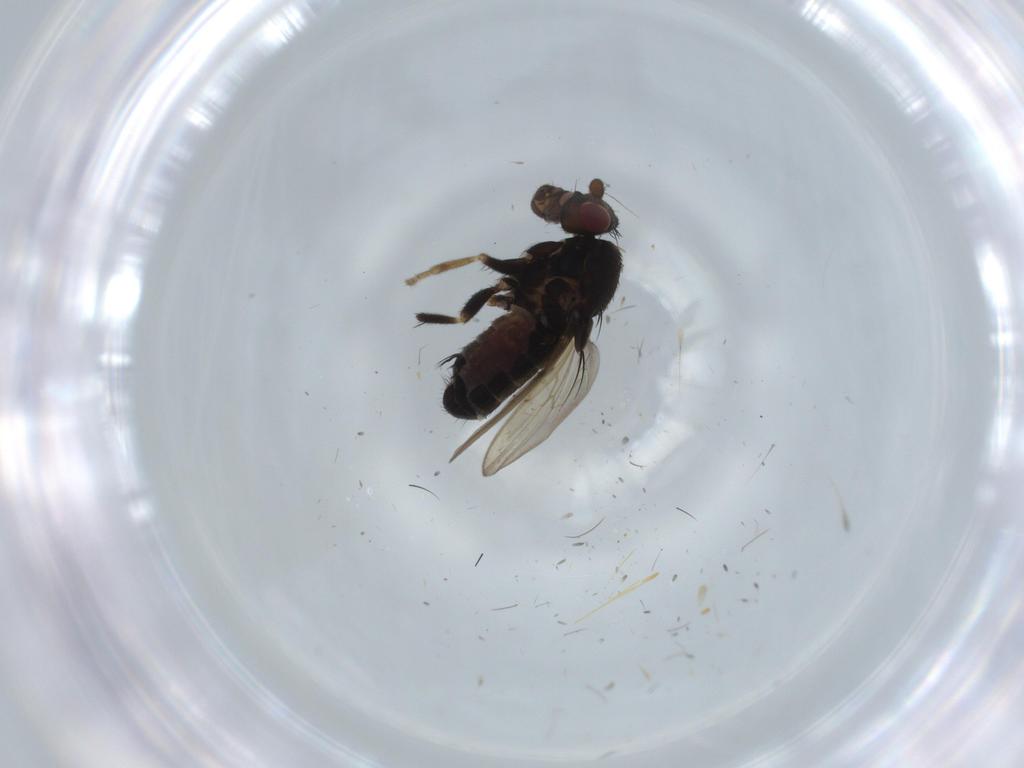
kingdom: Animalia
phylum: Arthropoda
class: Insecta
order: Diptera
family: Sphaeroceridae
